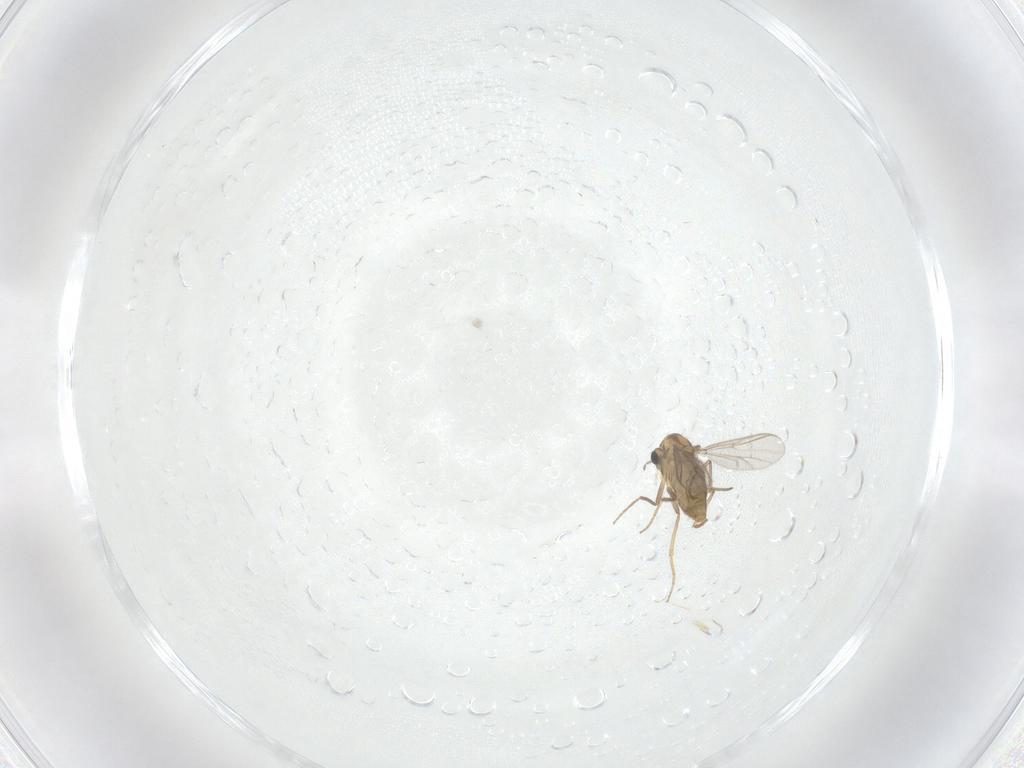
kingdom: Animalia
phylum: Arthropoda
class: Insecta
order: Diptera
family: Chironomidae
